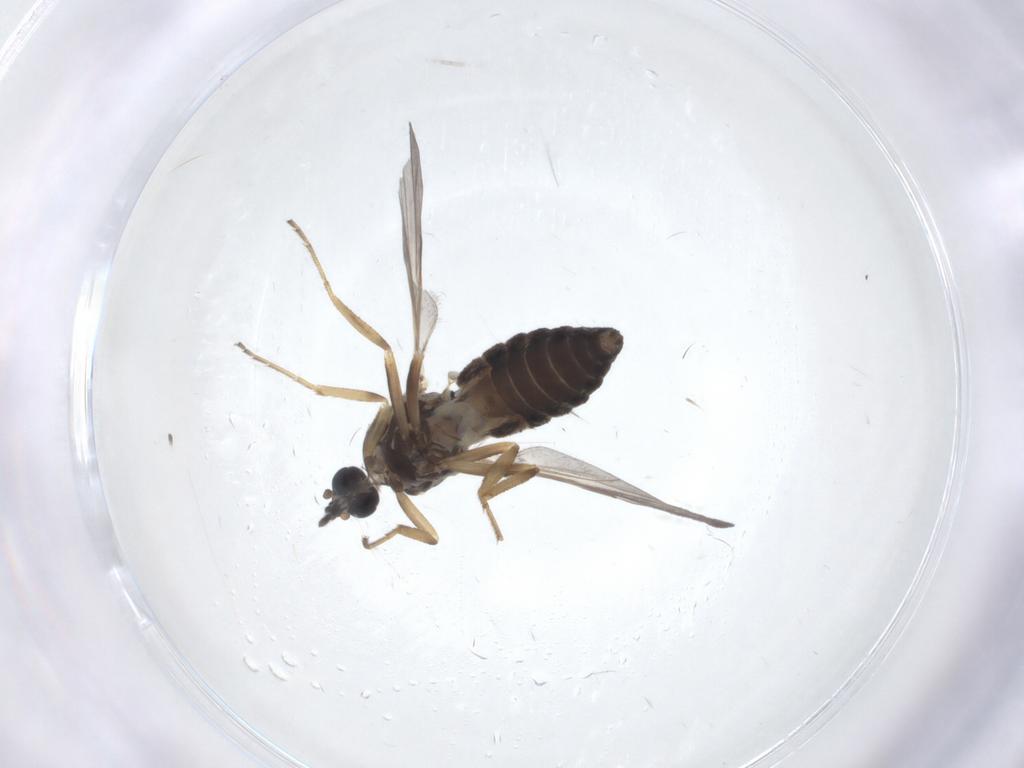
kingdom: Animalia
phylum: Arthropoda
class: Insecta
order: Diptera
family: Ceratopogonidae
